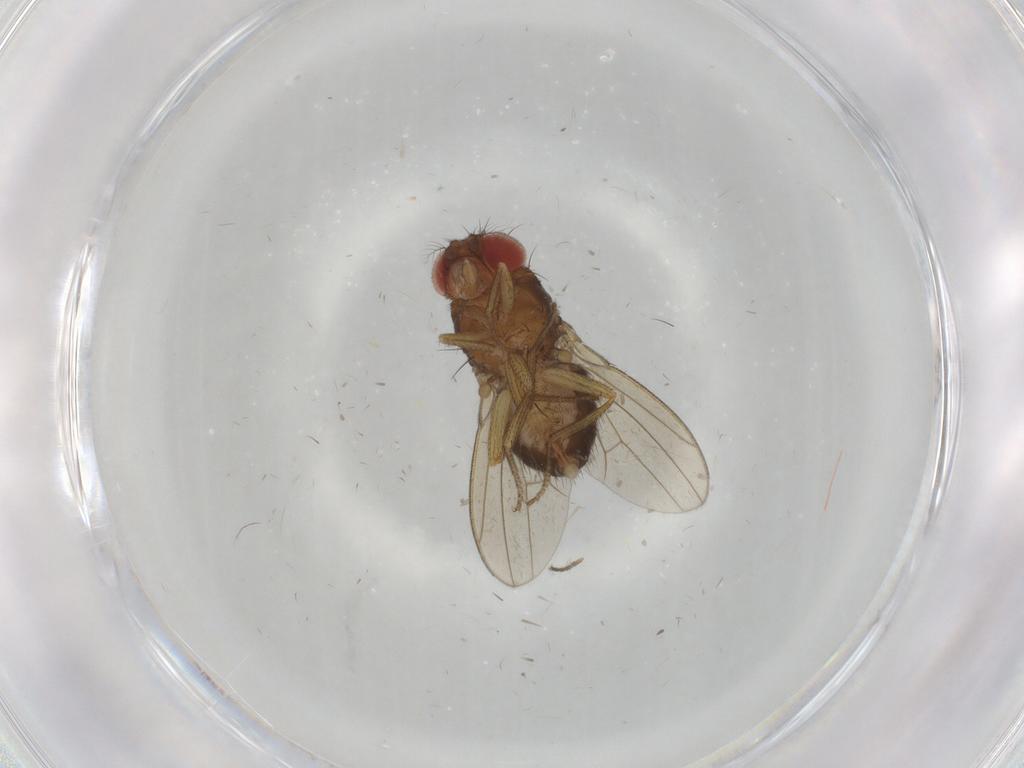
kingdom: Animalia
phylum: Arthropoda
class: Insecta
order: Diptera
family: Drosophilidae
